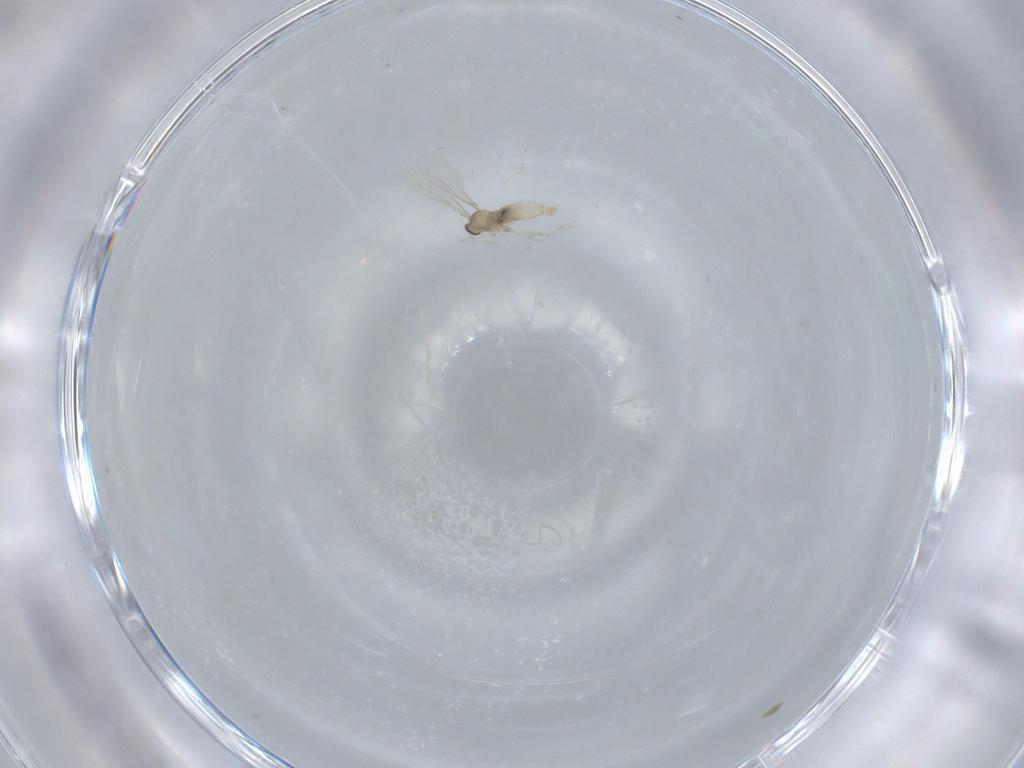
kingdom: Animalia
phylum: Arthropoda
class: Insecta
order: Diptera
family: Cecidomyiidae
